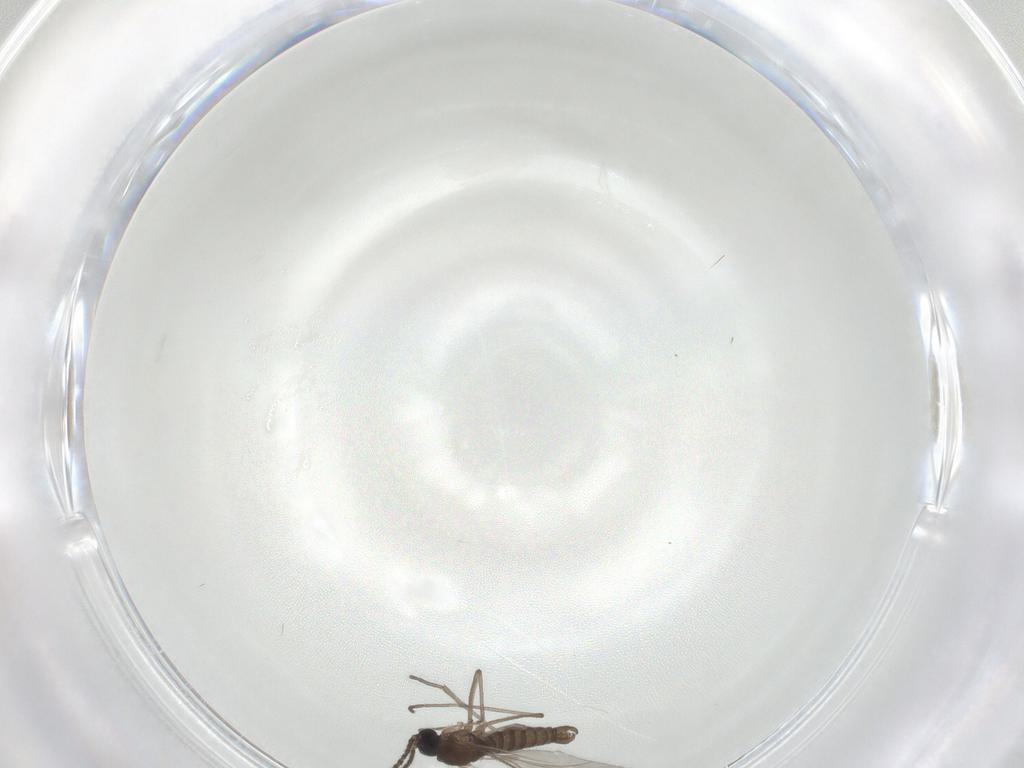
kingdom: Animalia
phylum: Arthropoda
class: Insecta
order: Diptera
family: Sciaridae
